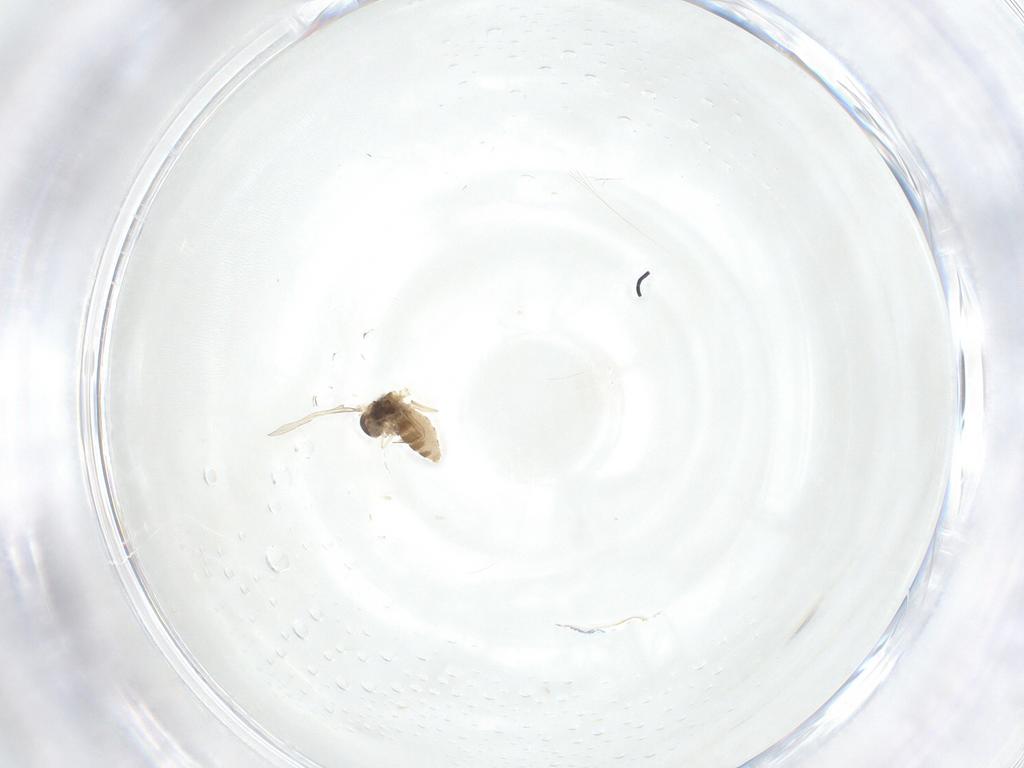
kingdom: Animalia
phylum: Arthropoda
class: Insecta
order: Diptera
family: Cecidomyiidae
